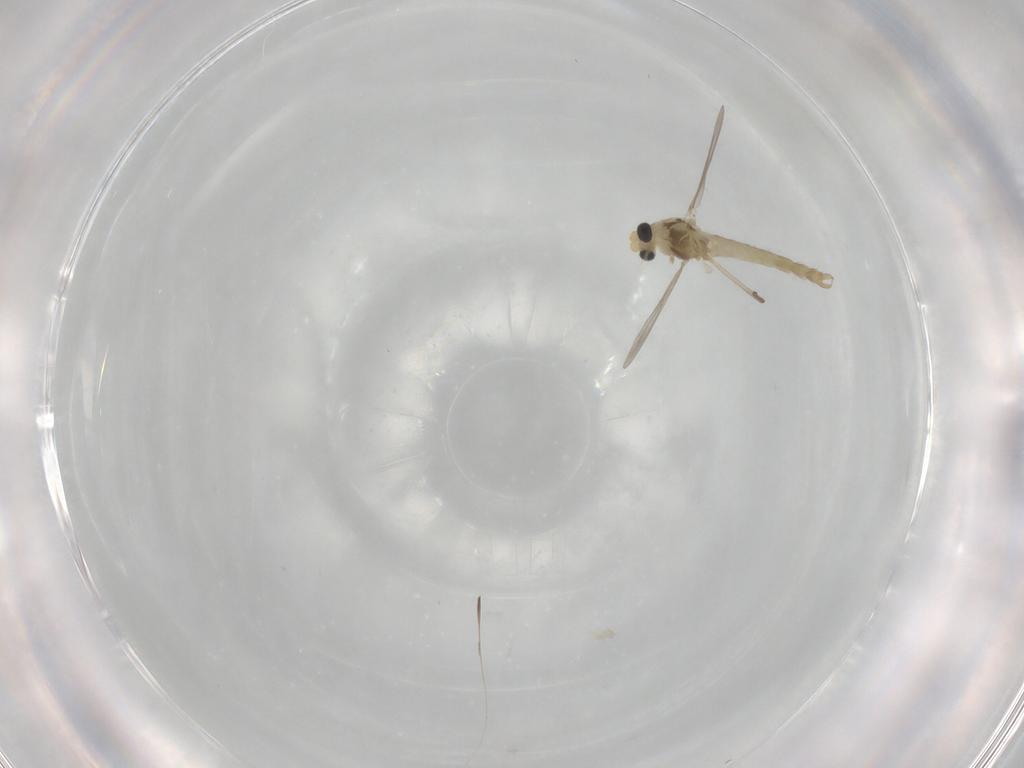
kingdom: Animalia
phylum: Arthropoda
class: Insecta
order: Diptera
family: Chironomidae
